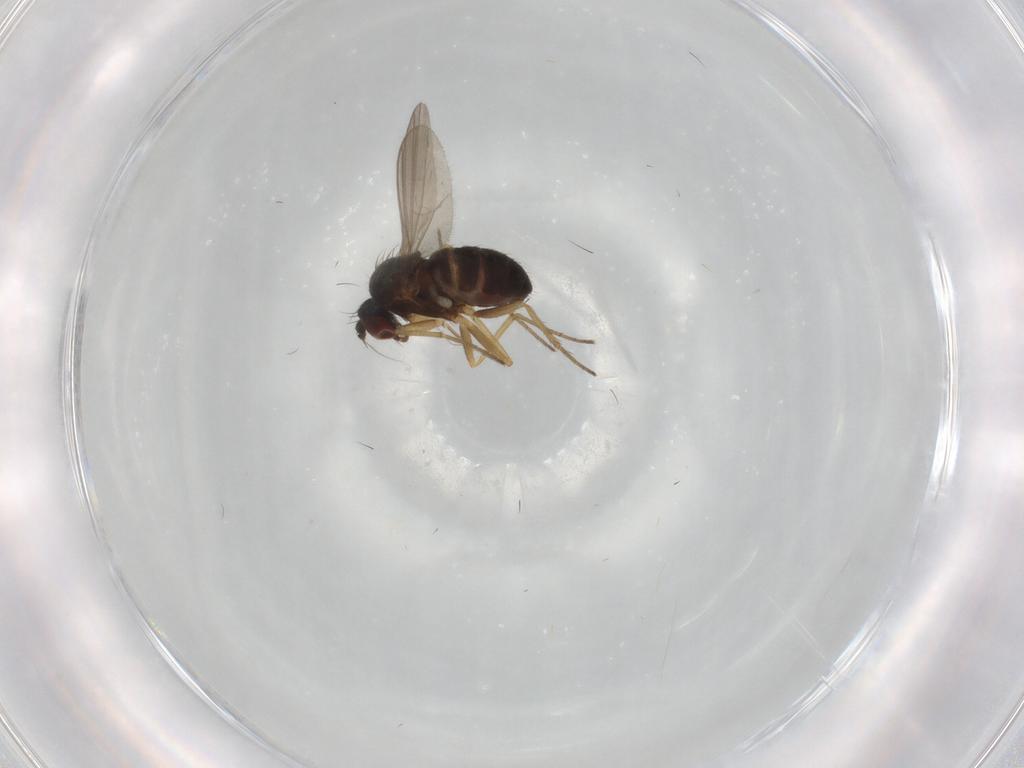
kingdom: Animalia
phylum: Arthropoda
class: Insecta
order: Diptera
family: Dolichopodidae
